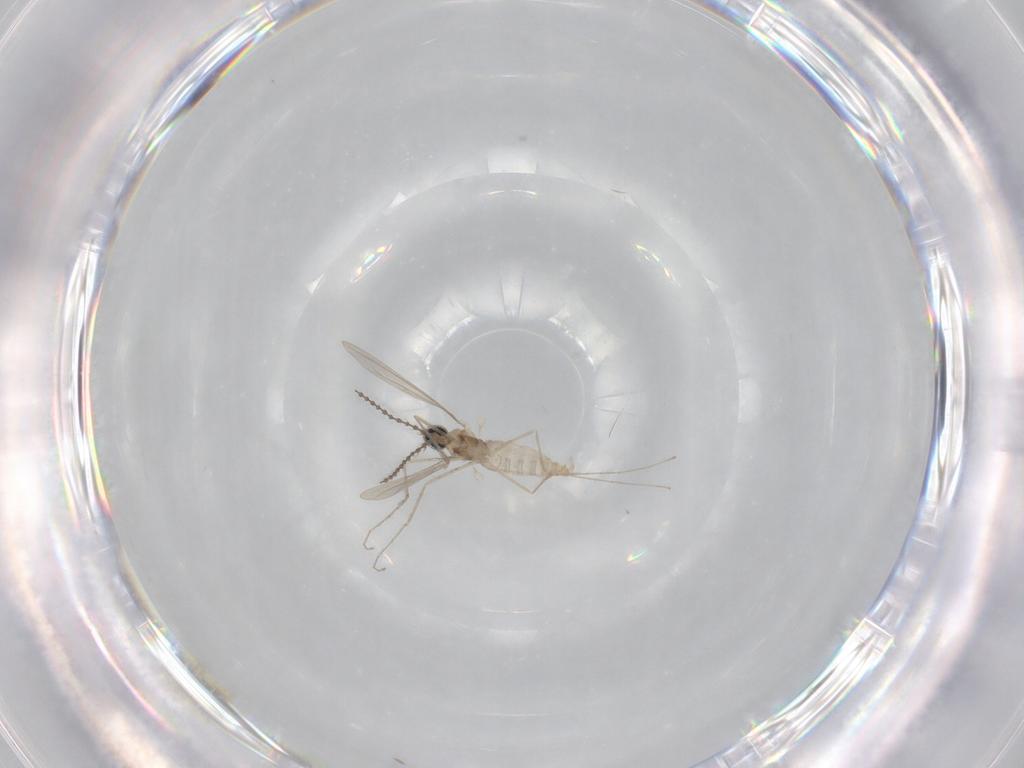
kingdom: Animalia
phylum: Arthropoda
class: Insecta
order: Diptera
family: Cecidomyiidae
